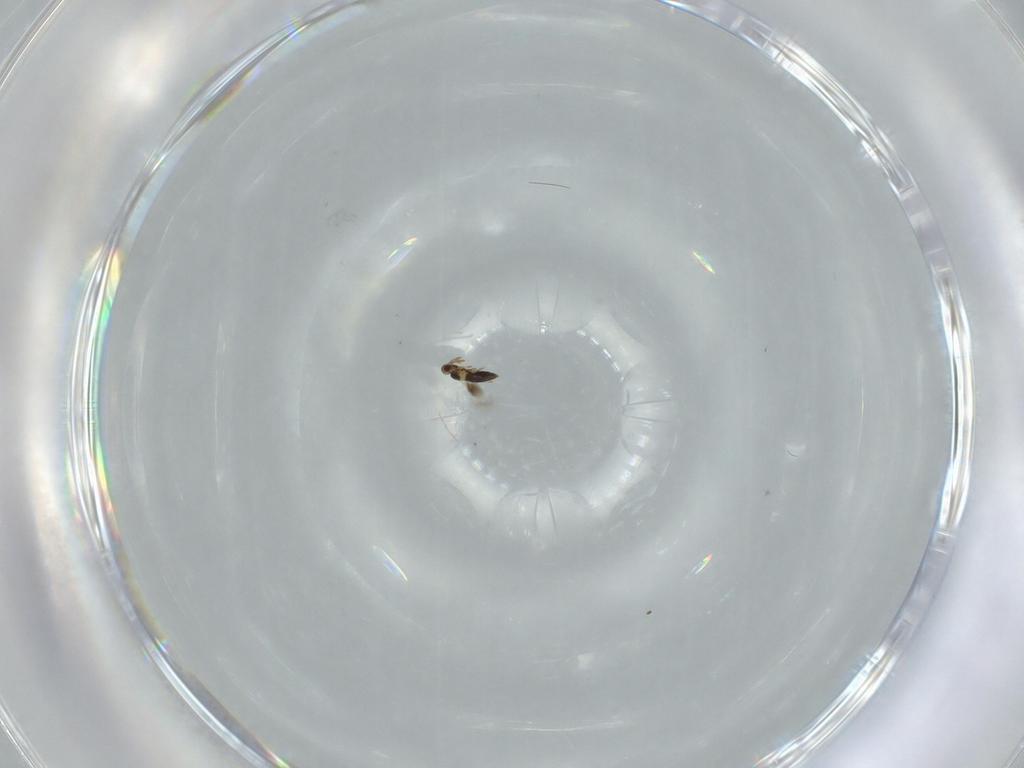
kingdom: Animalia
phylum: Arthropoda
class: Insecta
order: Hymenoptera
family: Signiphoridae
